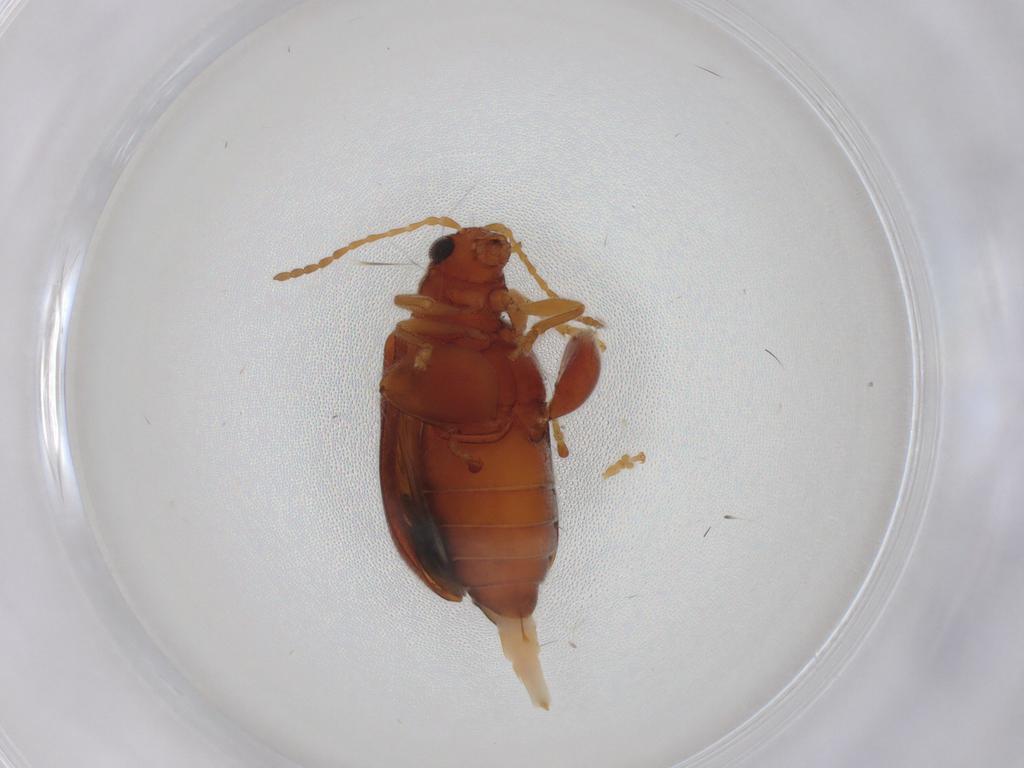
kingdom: Animalia
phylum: Arthropoda
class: Insecta
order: Coleoptera
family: Chrysomelidae
